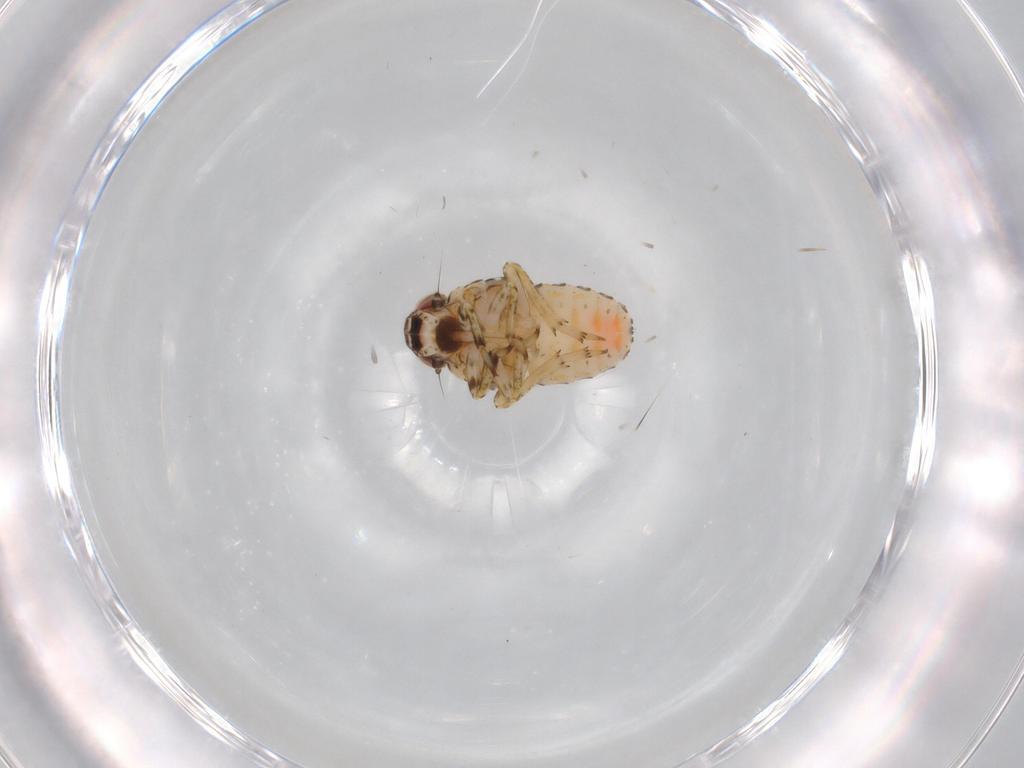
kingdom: Animalia
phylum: Arthropoda
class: Insecta
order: Hemiptera
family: Issidae
